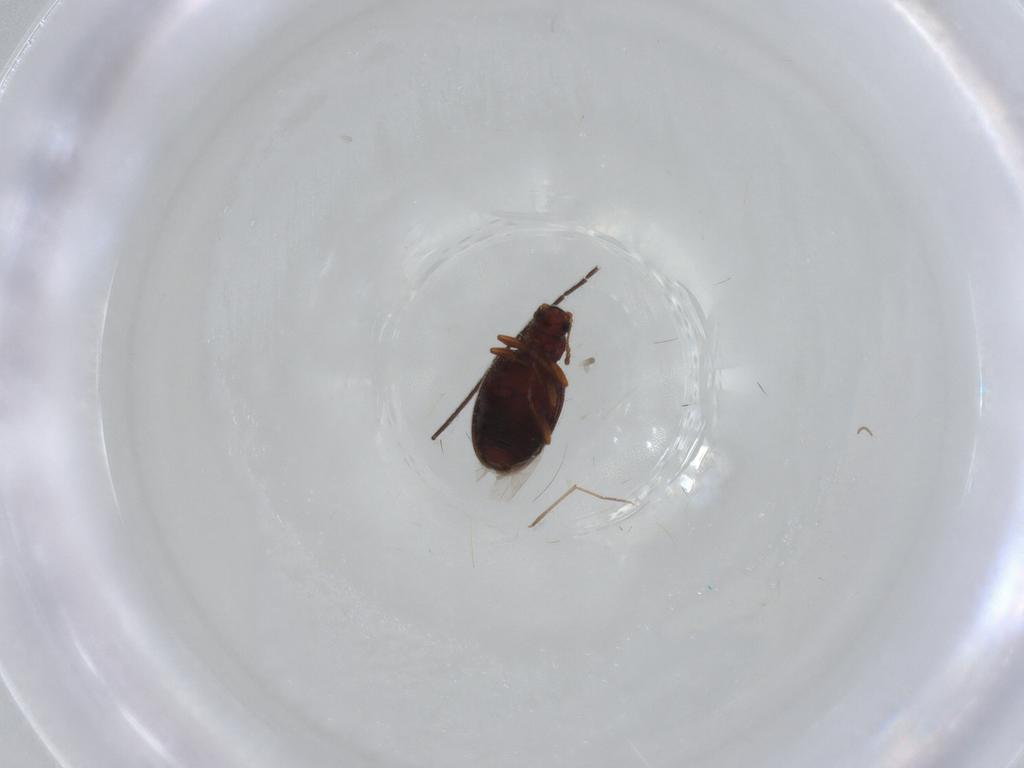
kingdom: Animalia
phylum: Arthropoda
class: Insecta
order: Coleoptera
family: Latridiidae
